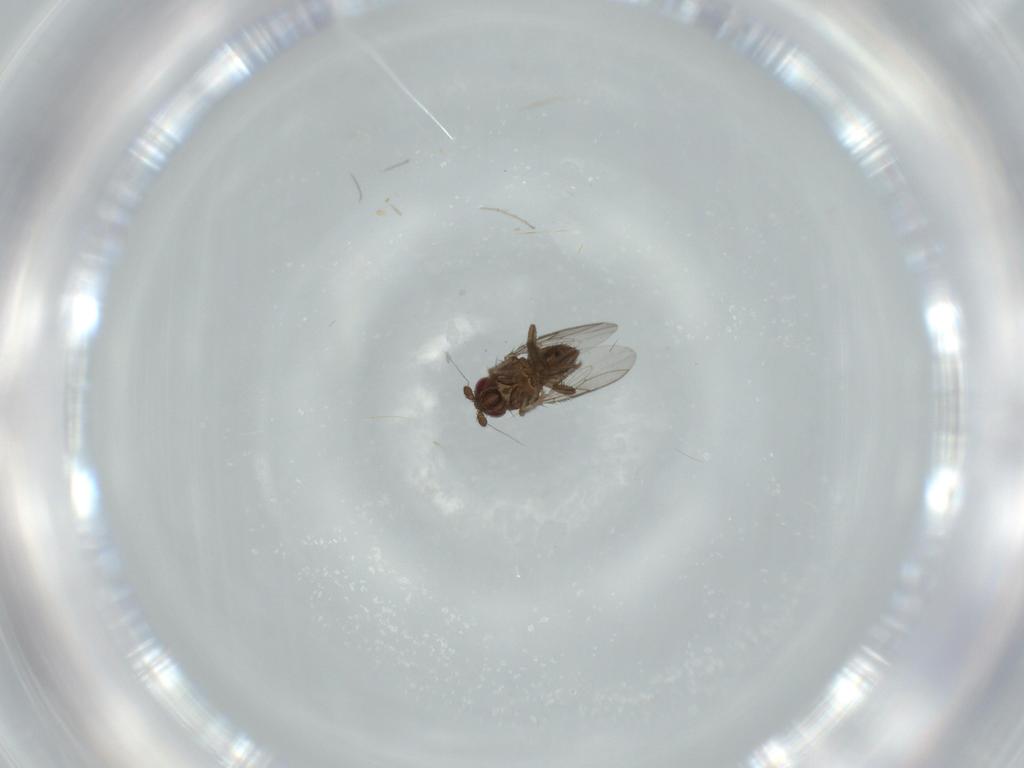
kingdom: Animalia
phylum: Arthropoda
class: Insecta
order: Diptera
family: Sphaeroceridae
